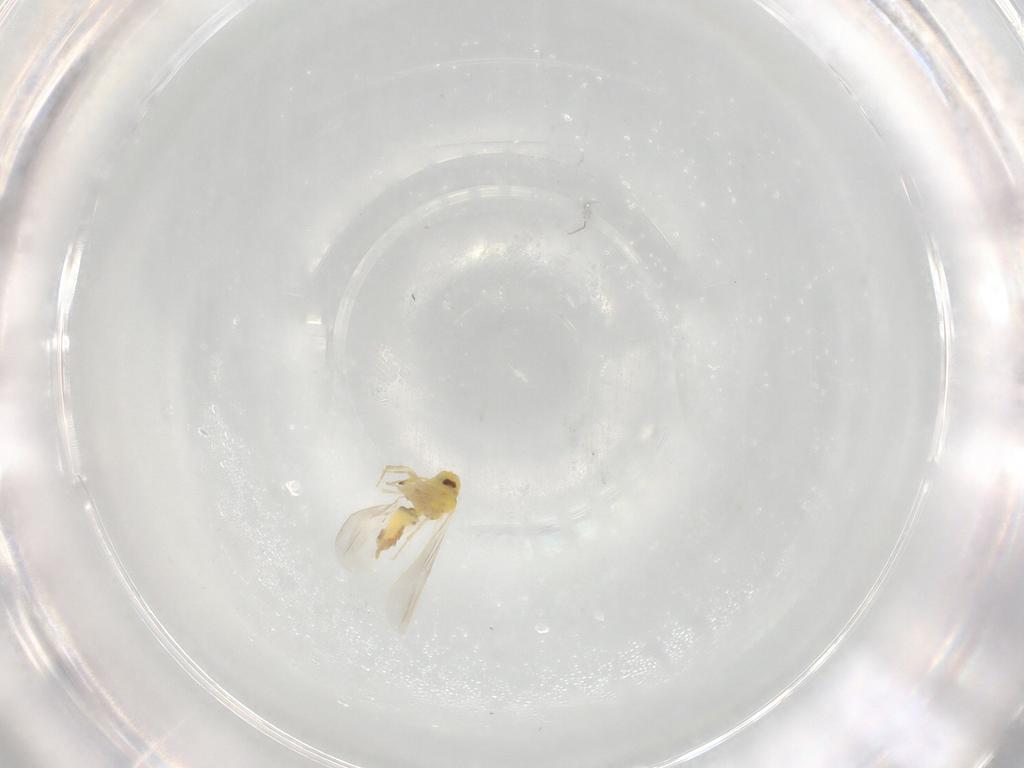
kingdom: Animalia
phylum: Arthropoda
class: Insecta
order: Hemiptera
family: Aleyrodidae
